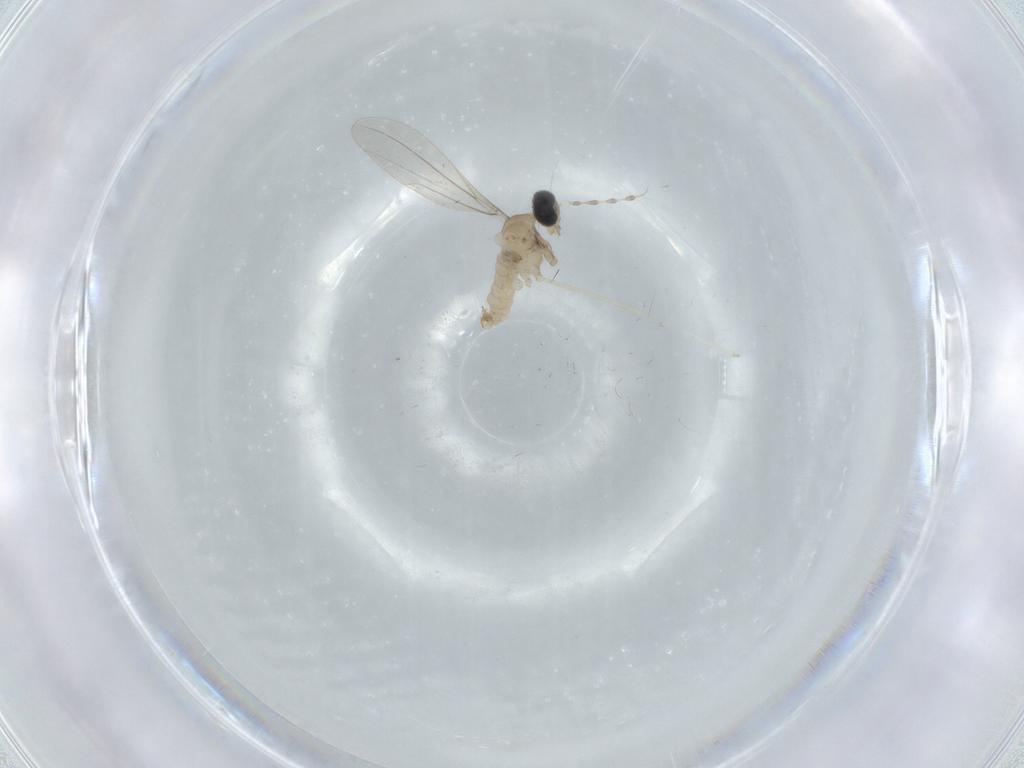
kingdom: Animalia
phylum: Arthropoda
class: Insecta
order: Diptera
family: Cecidomyiidae
